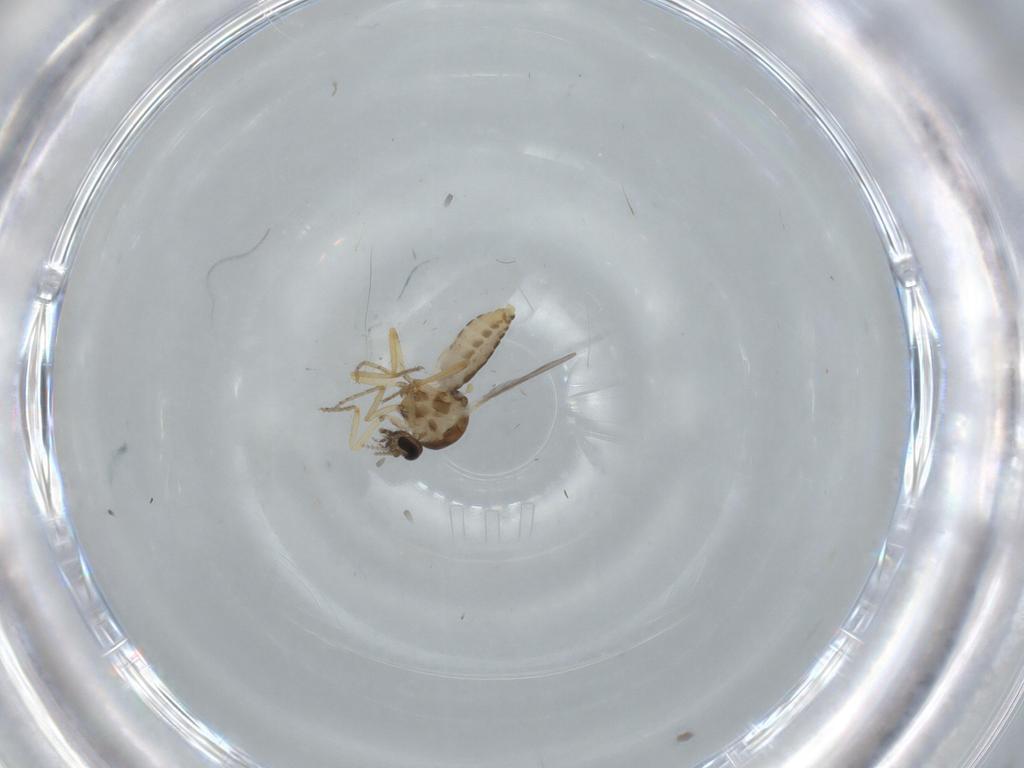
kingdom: Animalia
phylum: Arthropoda
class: Insecta
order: Diptera
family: Ceratopogonidae
